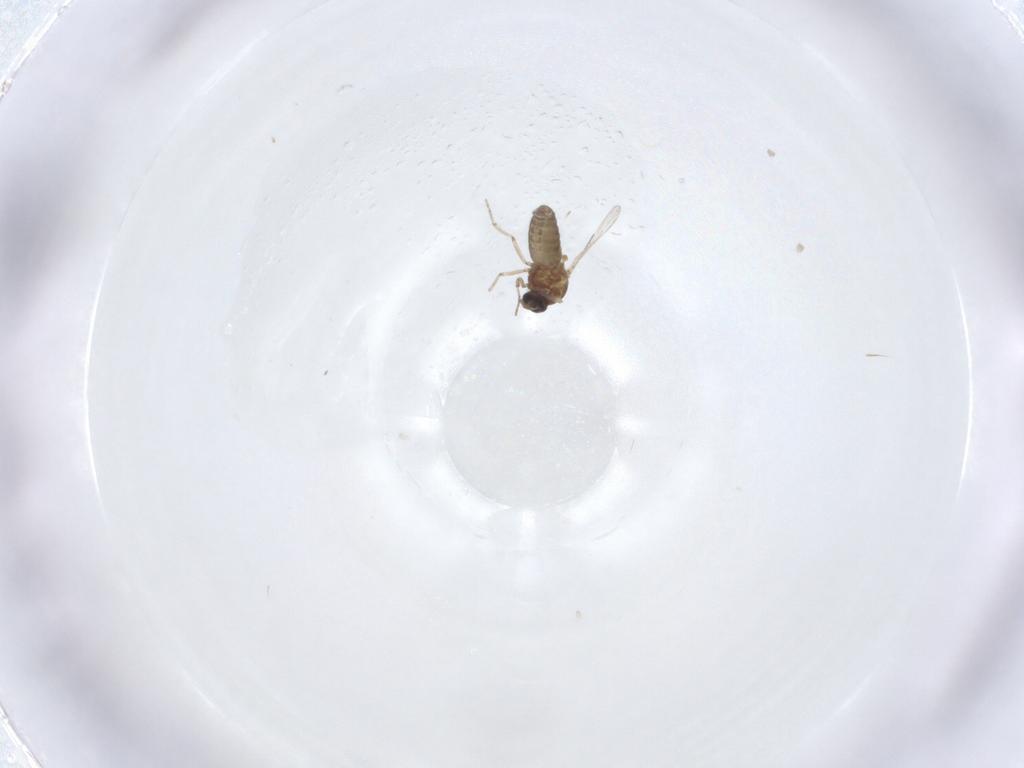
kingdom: Animalia
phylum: Arthropoda
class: Insecta
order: Diptera
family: Ceratopogonidae
